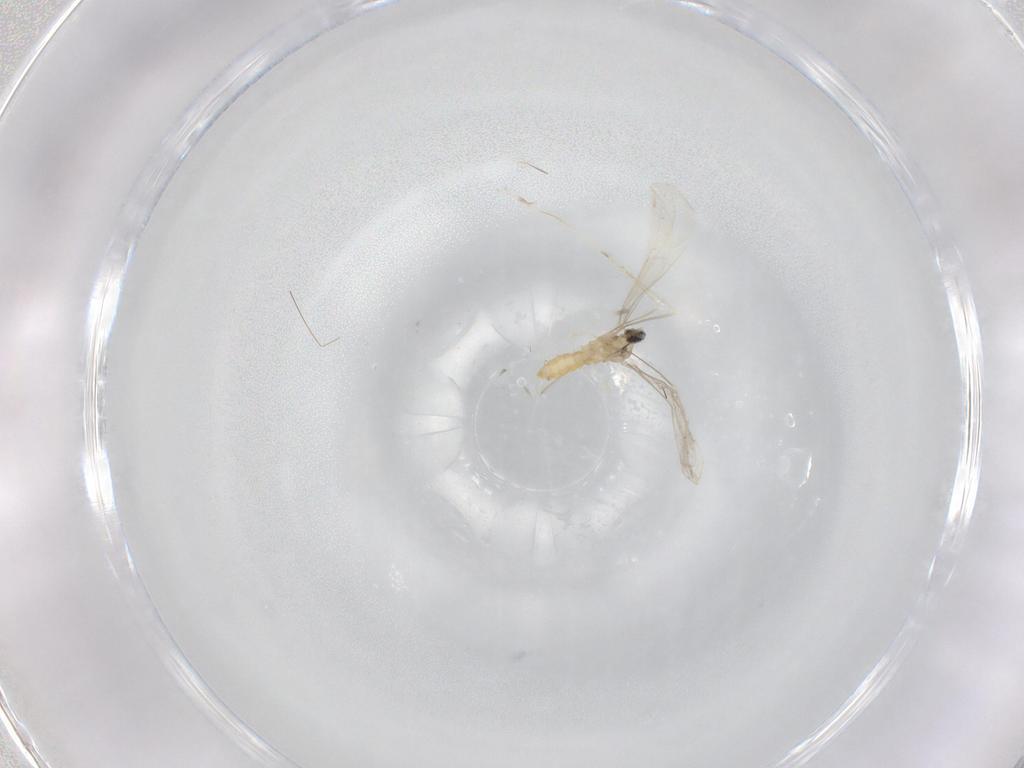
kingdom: Animalia
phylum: Arthropoda
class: Insecta
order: Diptera
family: Cecidomyiidae
